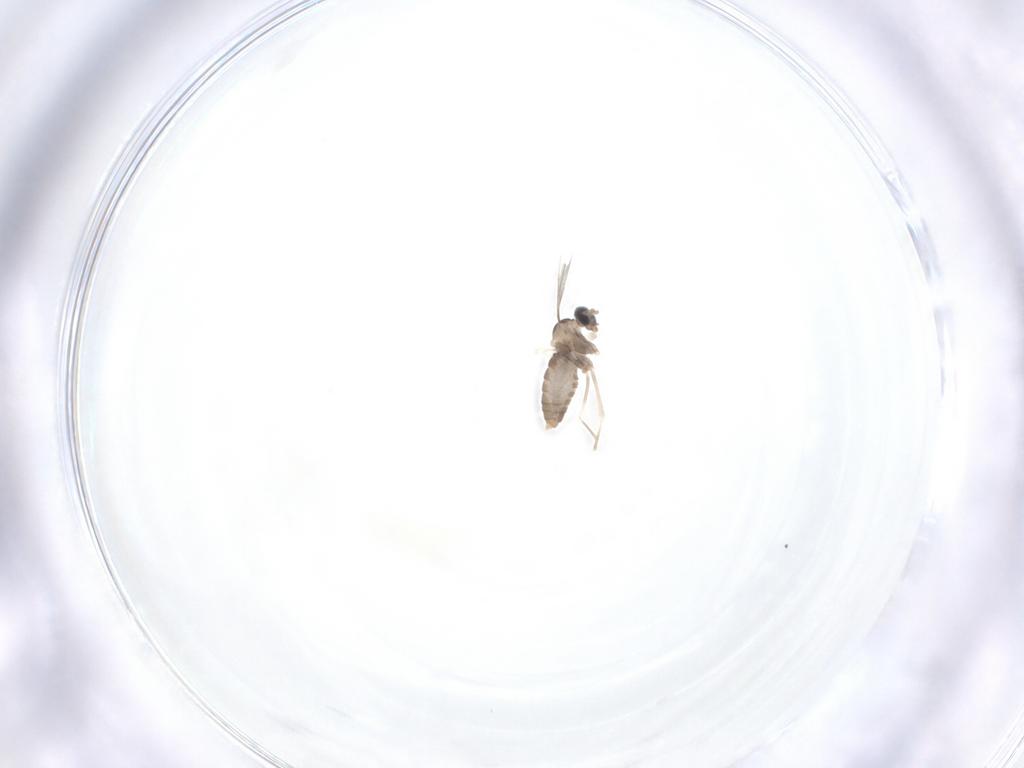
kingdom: Animalia
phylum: Arthropoda
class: Insecta
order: Diptera
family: Cecidomyiidae
